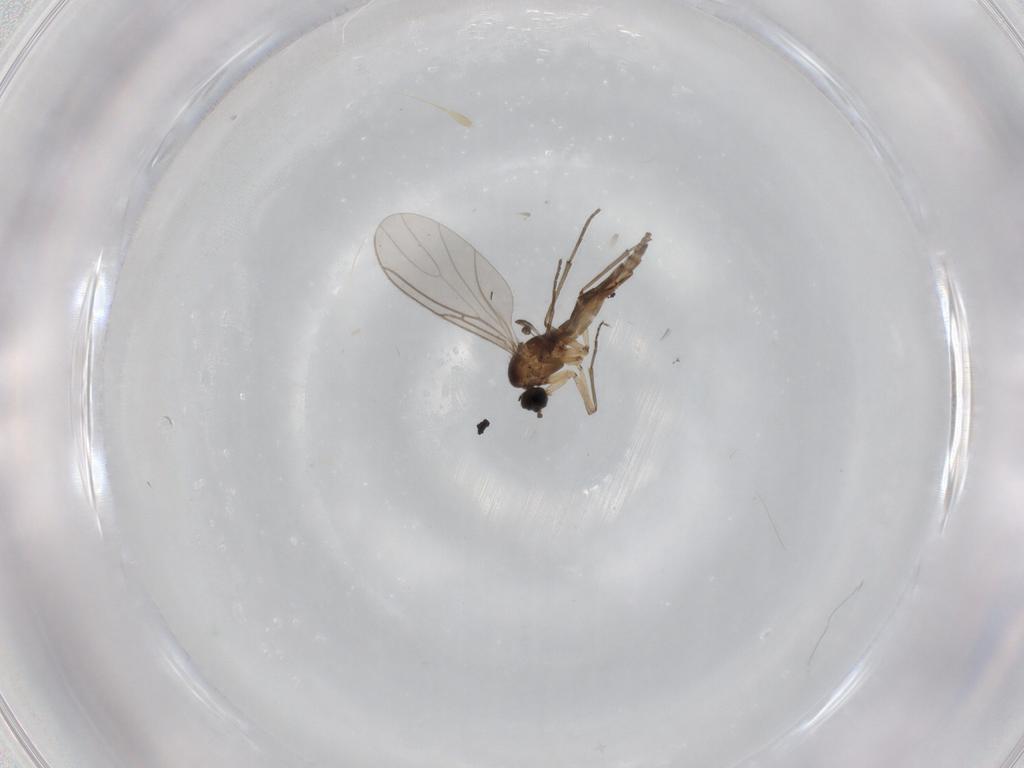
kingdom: Animalia
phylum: Arthropoda
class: Insecta
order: Diptera
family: Sciaridae
